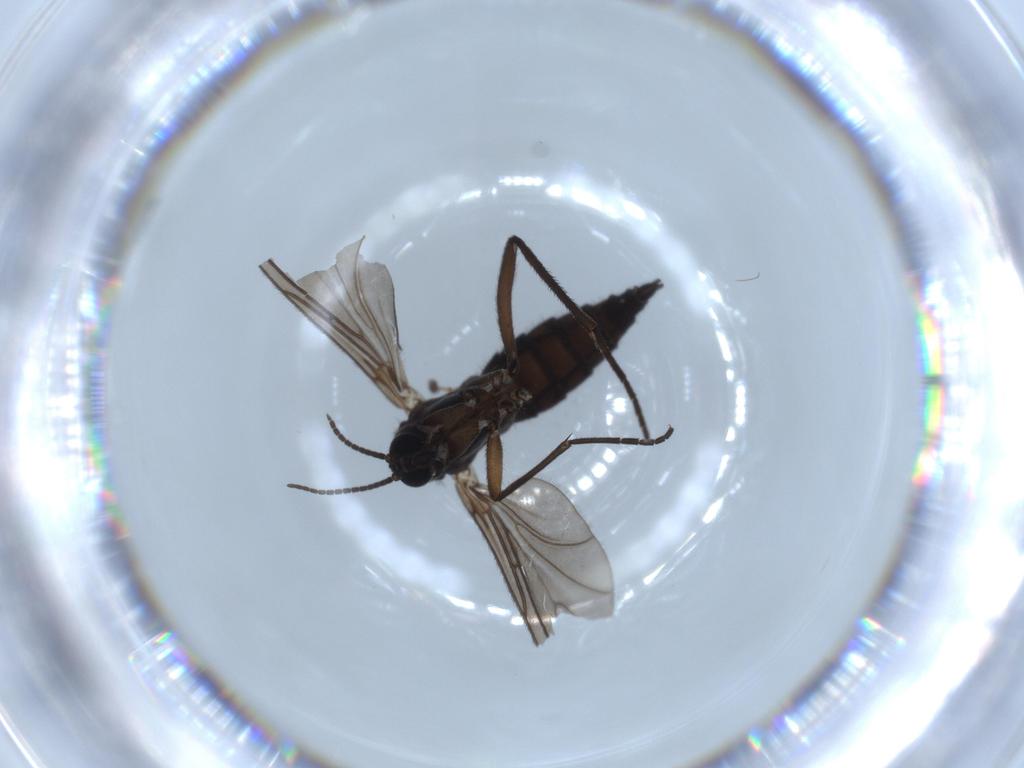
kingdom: Animalia
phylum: Arthropoda
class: Insecta
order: Diptera
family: Sciaridae
